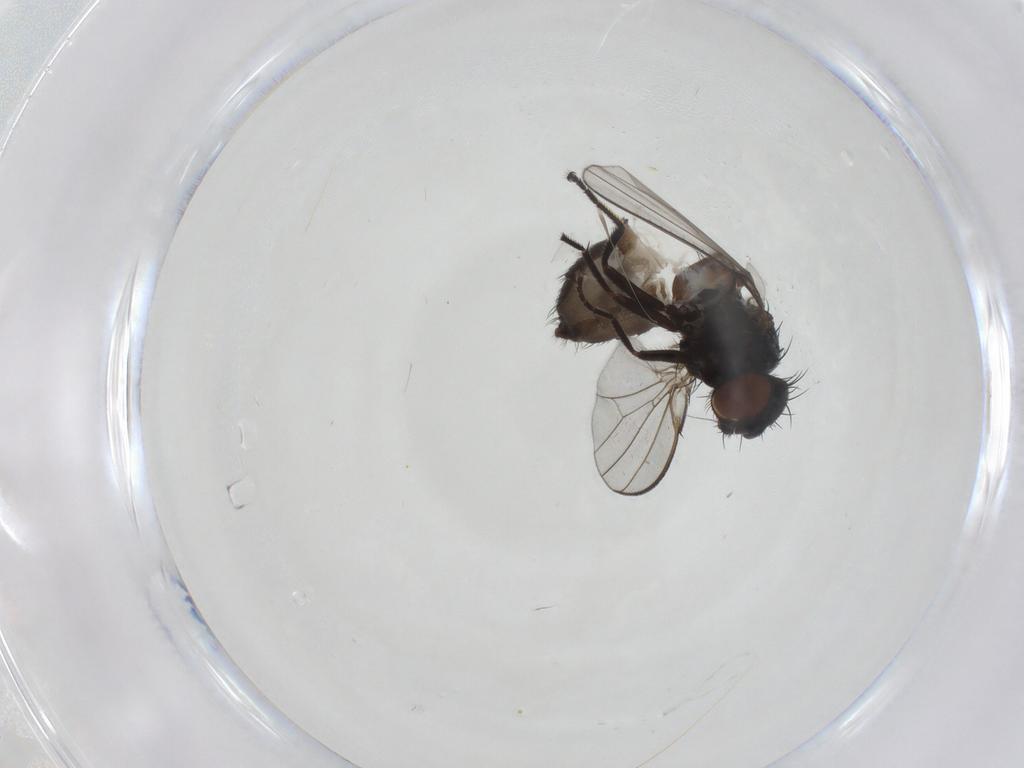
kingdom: Animalia
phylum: Arthropoda
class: Insecta
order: Diptera
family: Milichiidae
